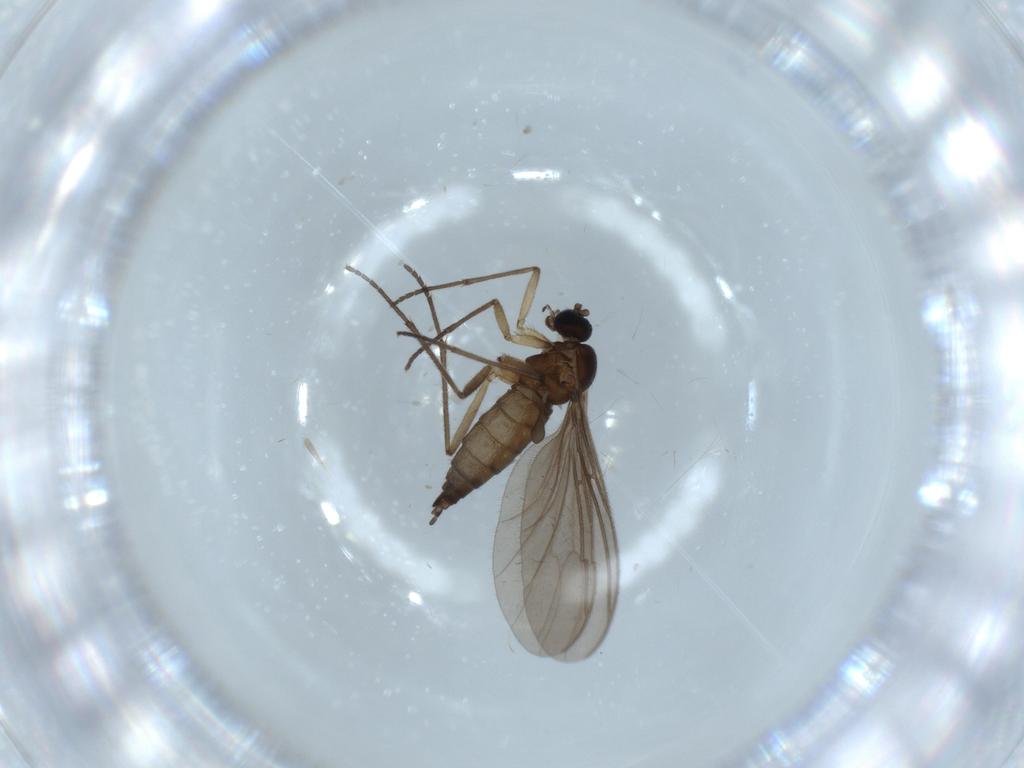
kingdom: Animalia
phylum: Arthropoda
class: Insecta
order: Diptera
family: Sciaridae
